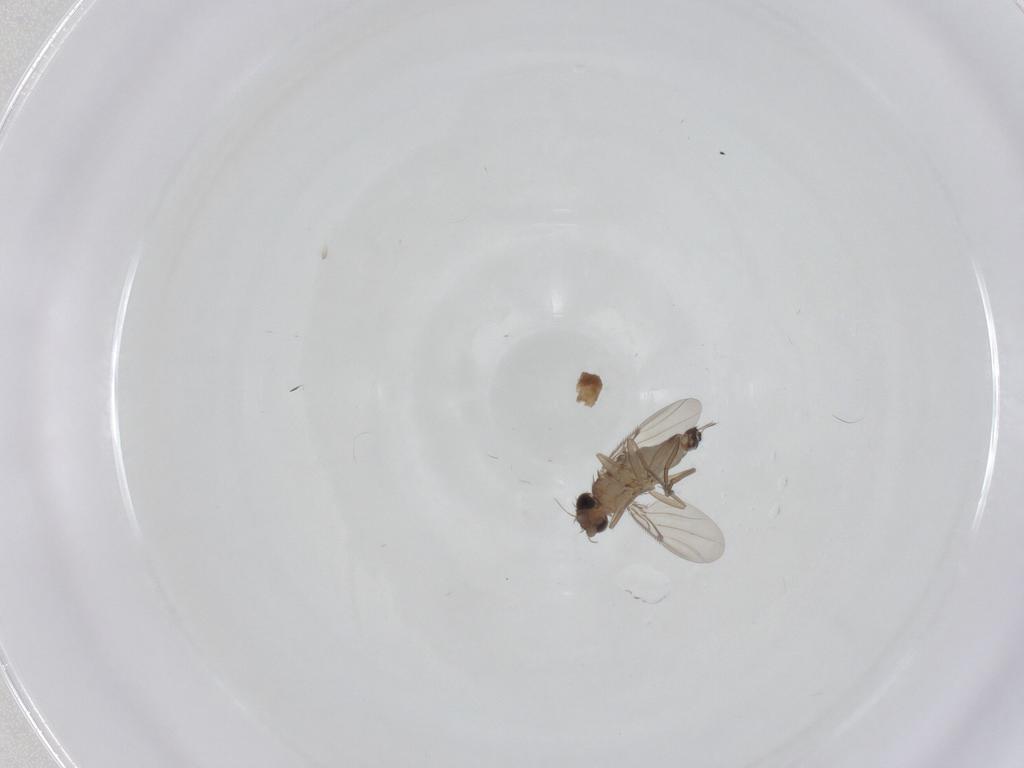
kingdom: Animalia
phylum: Arthropoda
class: Insecta
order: Diptera
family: Syrphidae
